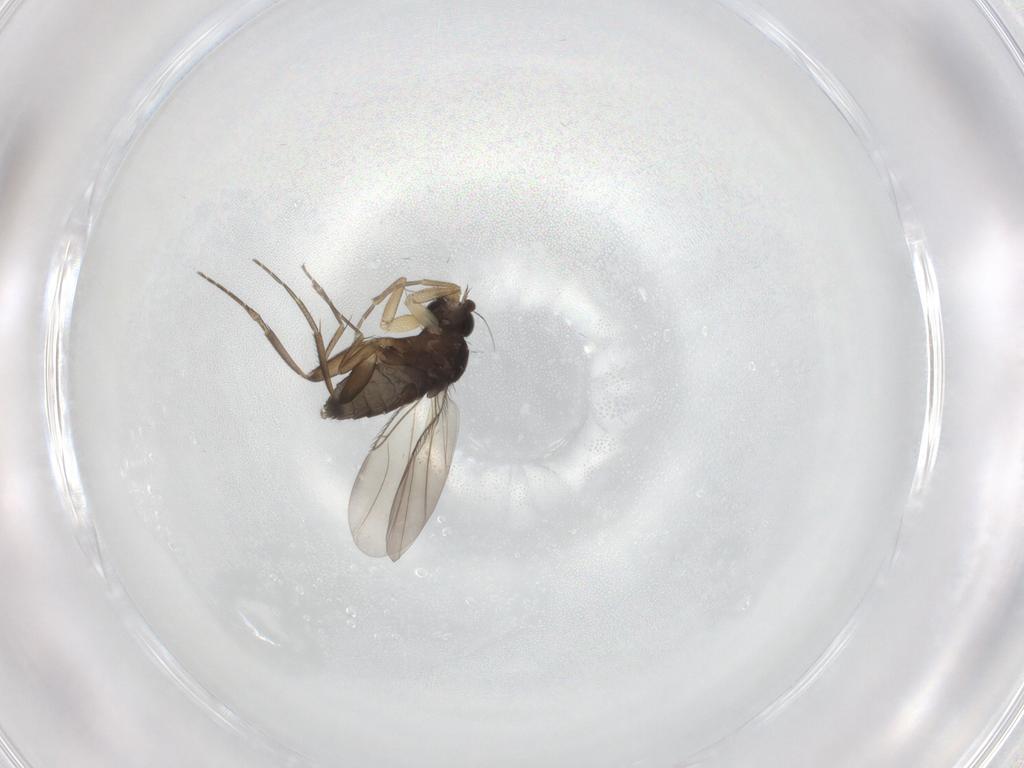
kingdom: Animalia
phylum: Arthropoda
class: Insecta
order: Diptera
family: Phoridae
